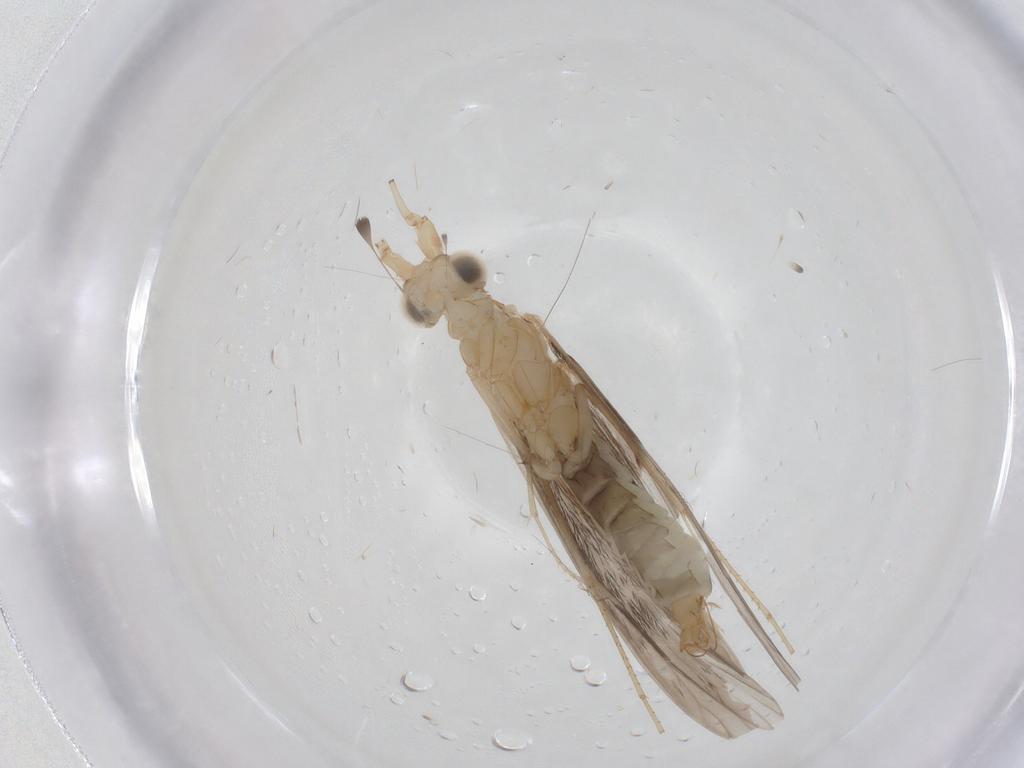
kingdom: Animalia
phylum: Arthropoda
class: Insecta
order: Trichoptera
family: Leptoceridae
